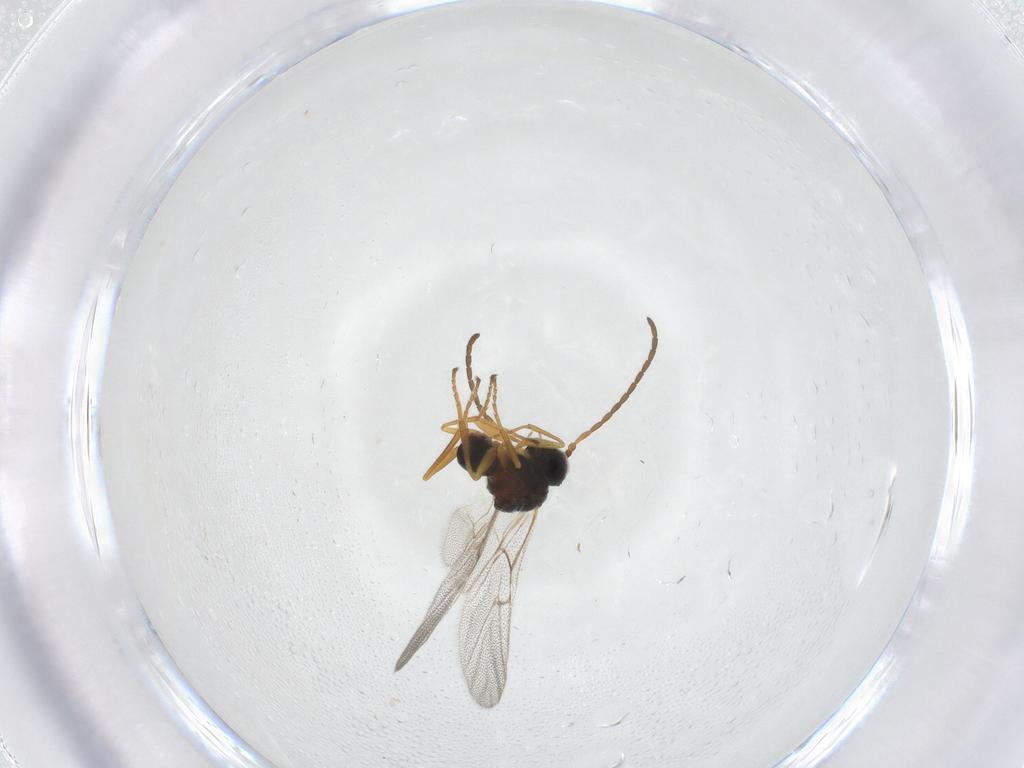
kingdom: Animalia
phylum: Arthropoda
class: Insecta
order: Hymenoptera
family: Cynipidae
